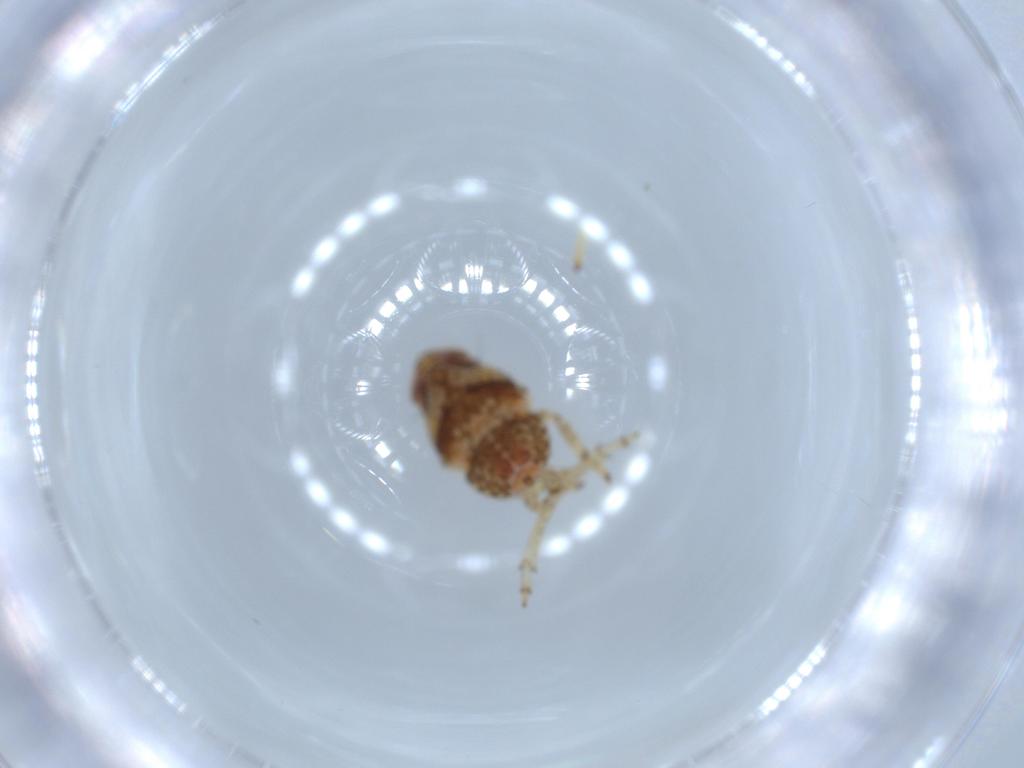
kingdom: Animalia
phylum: Arthropoda
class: Insecta
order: Hemiptera
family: Issidae
